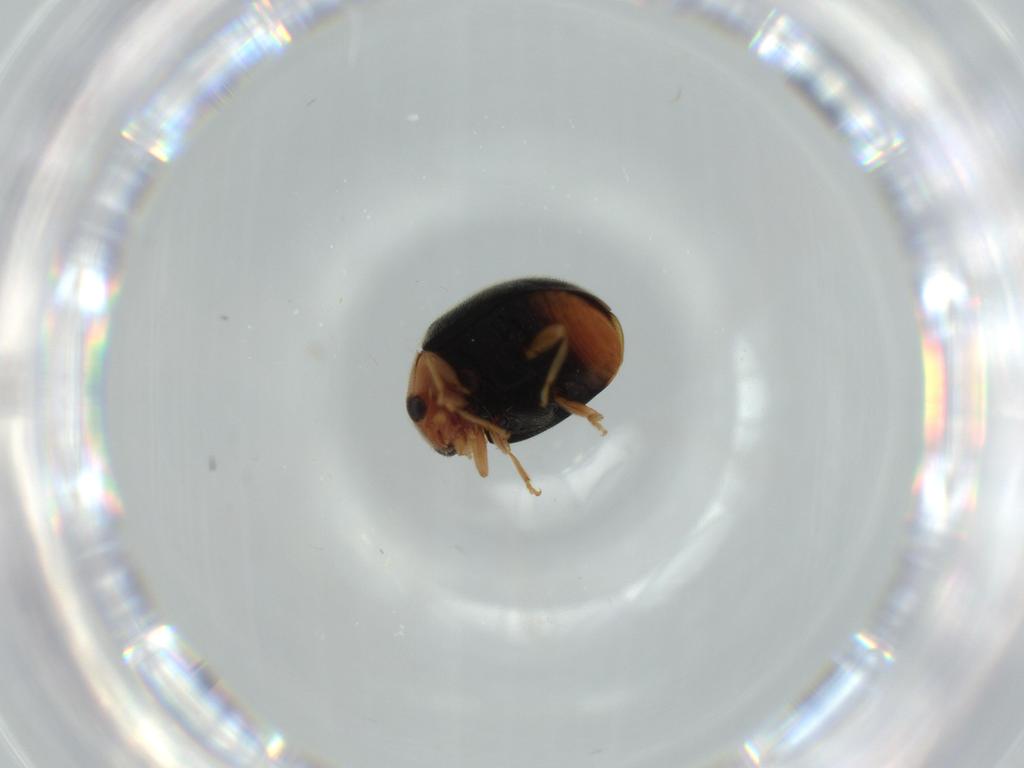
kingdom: Animalia
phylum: Arthropoda
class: Insecta
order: Coleoptera
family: Coccinellidae
